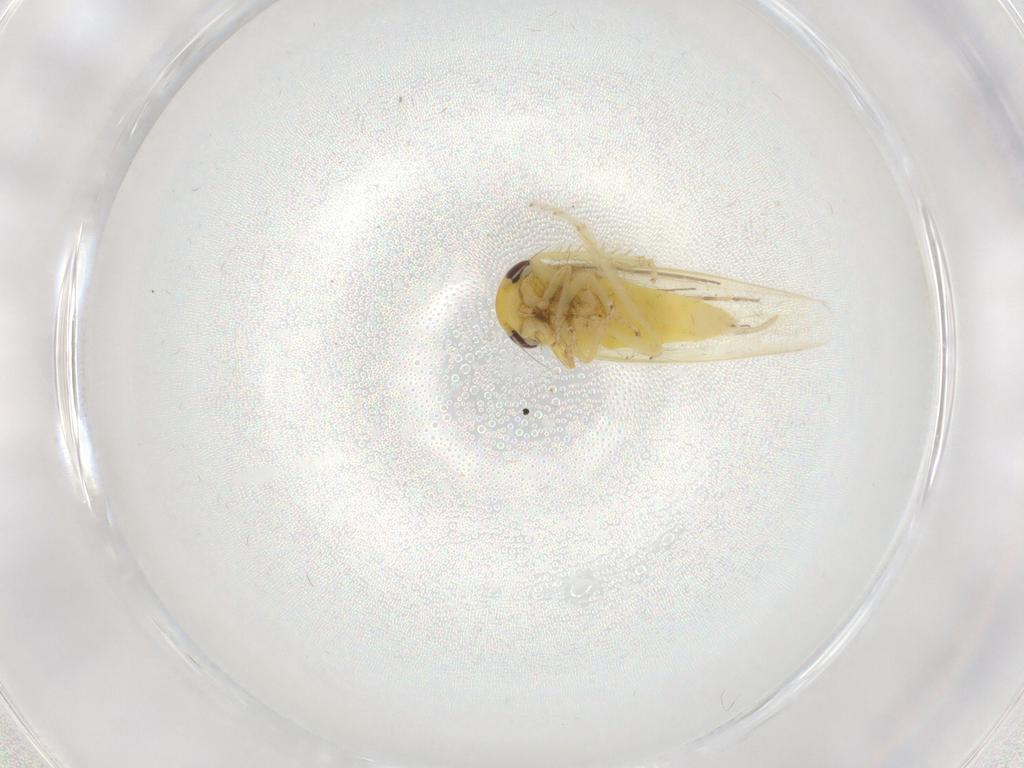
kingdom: Animalia
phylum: Arthropoda
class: Insecta
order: Hemiptera
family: Cicadellidae
